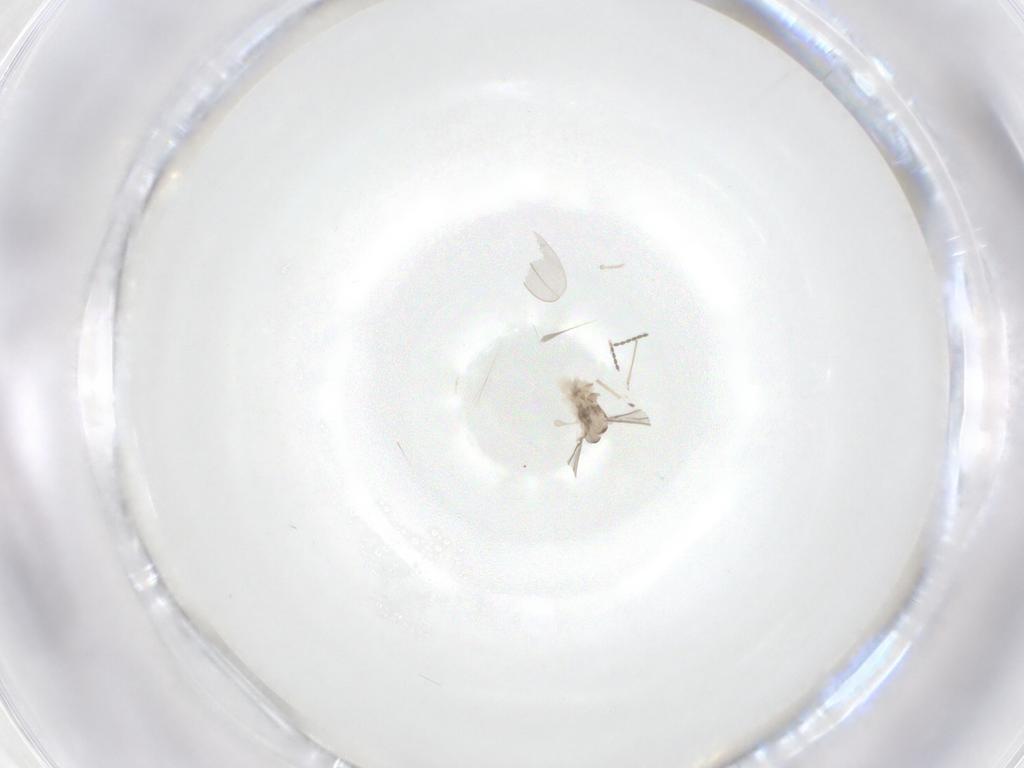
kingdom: Animalia
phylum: Arthropoda
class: Insecta
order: Diptera
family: Cecidomyiidae
